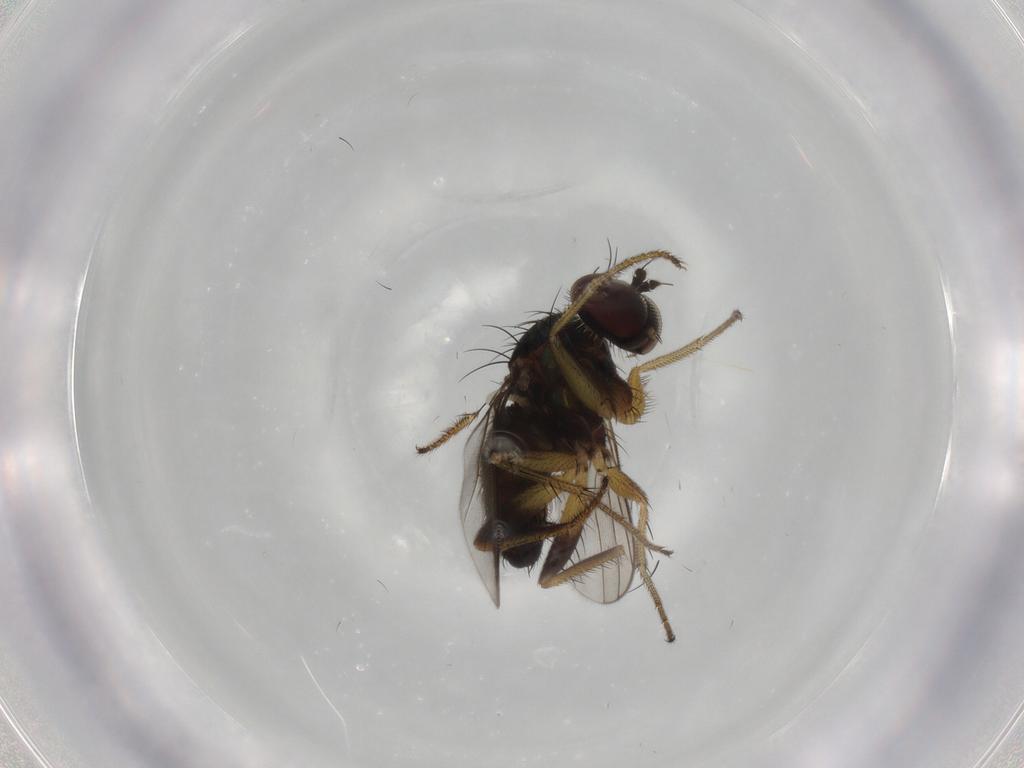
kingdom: Animalia
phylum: Arthropoda
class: Insecta
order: Diptera
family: Dolichopodidae
